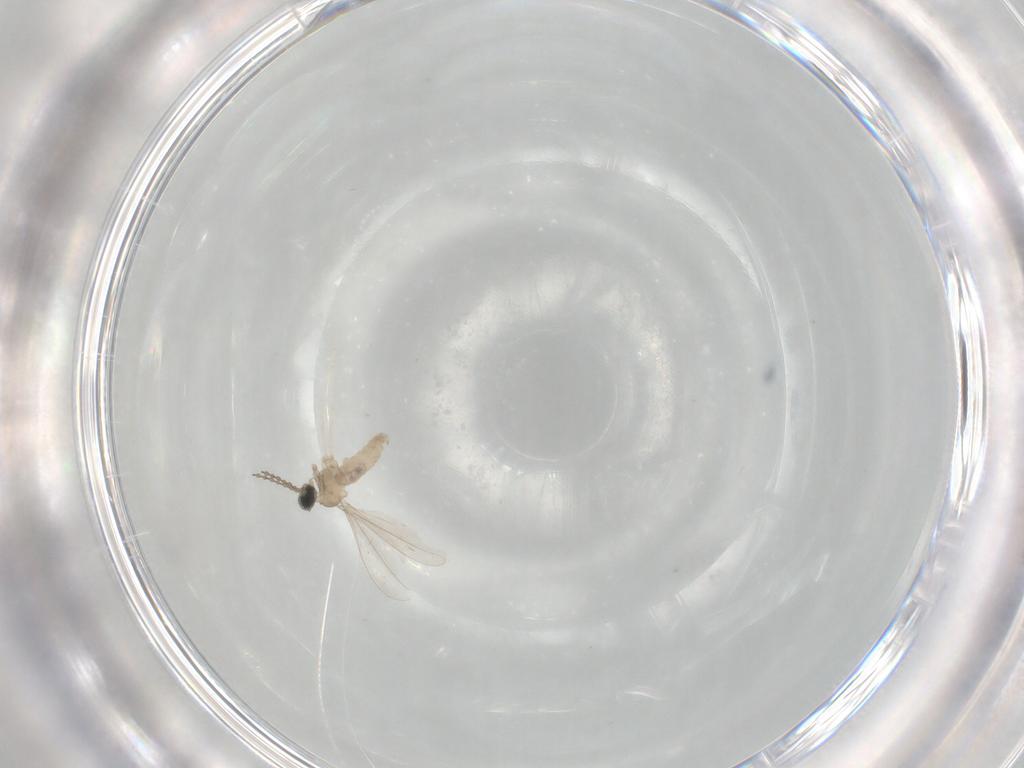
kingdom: Animalia
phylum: Arthropoda
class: Insecta
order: Diptera
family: Cecidomyiidae
